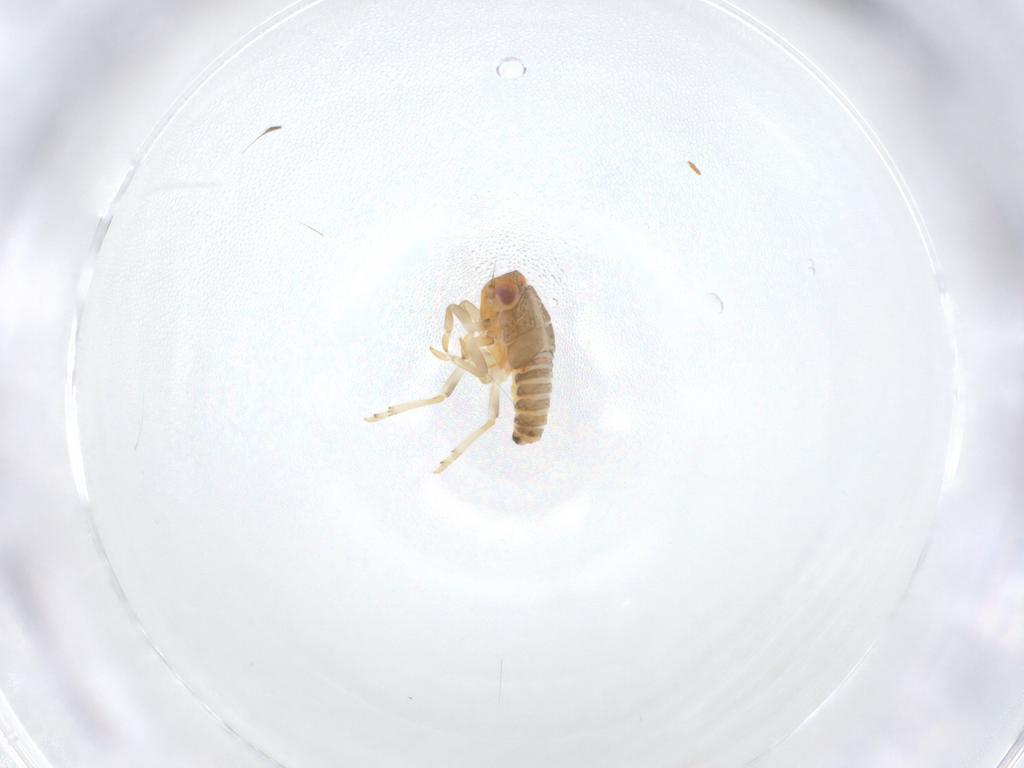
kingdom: Animalia
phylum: Arthropoda
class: Insecta
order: Hemiptera
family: Issidae
